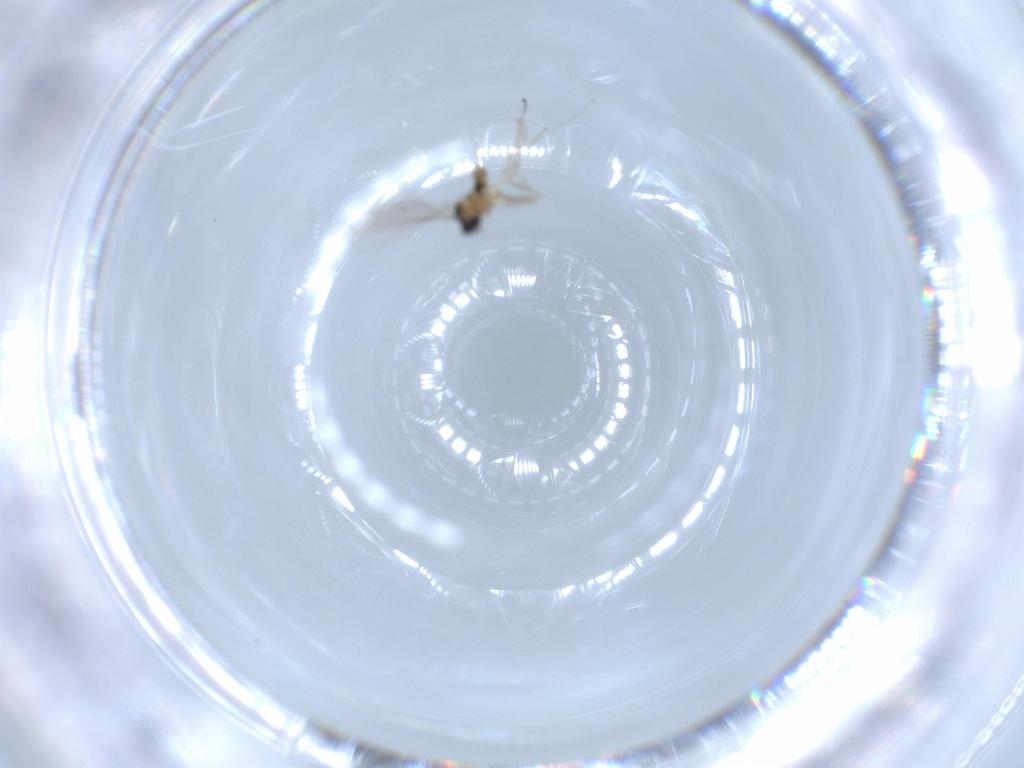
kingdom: Animalia
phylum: Arthropoda
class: Insecta
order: Diptera
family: Cecidomyiidae
